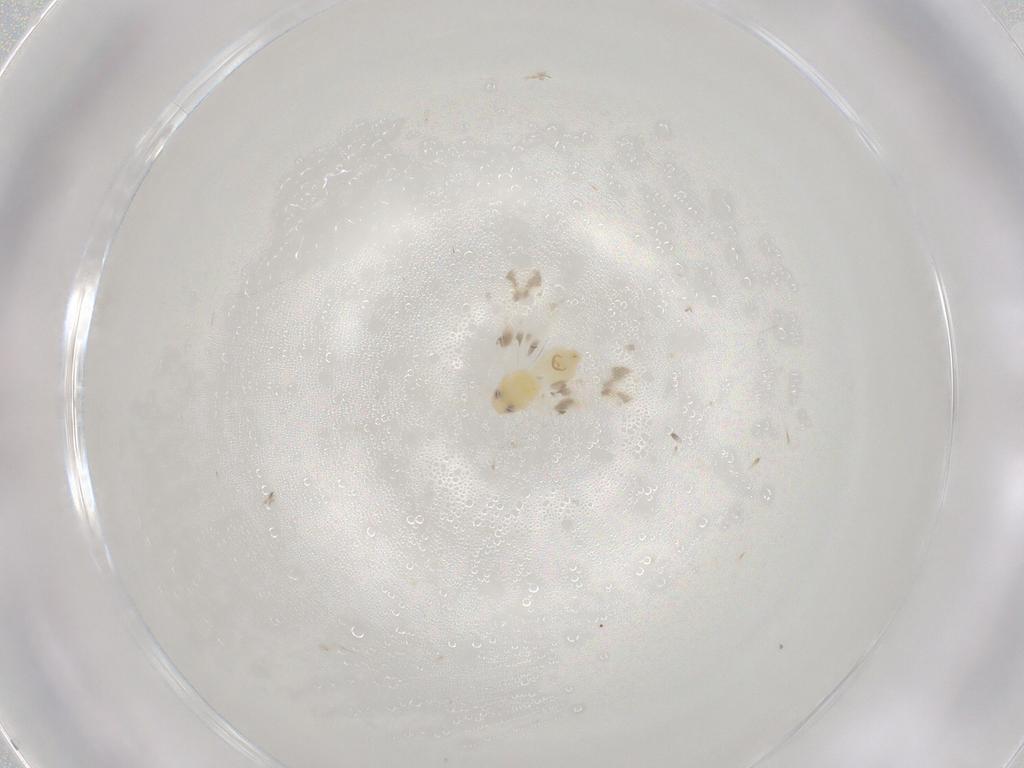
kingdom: Animalia
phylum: Arthropoda
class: Insecta
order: Hemiptera
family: Aleyrodidae
